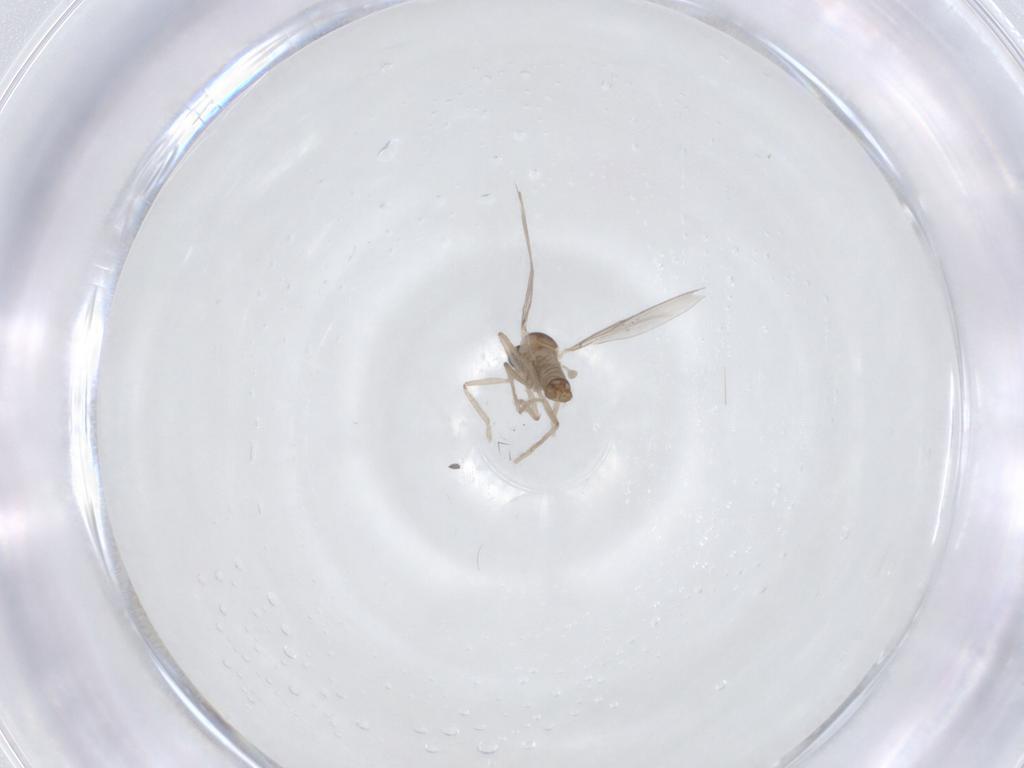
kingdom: Animalia
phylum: Arthropoda
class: Insecta
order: Diptera
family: Cecidomyiidae
